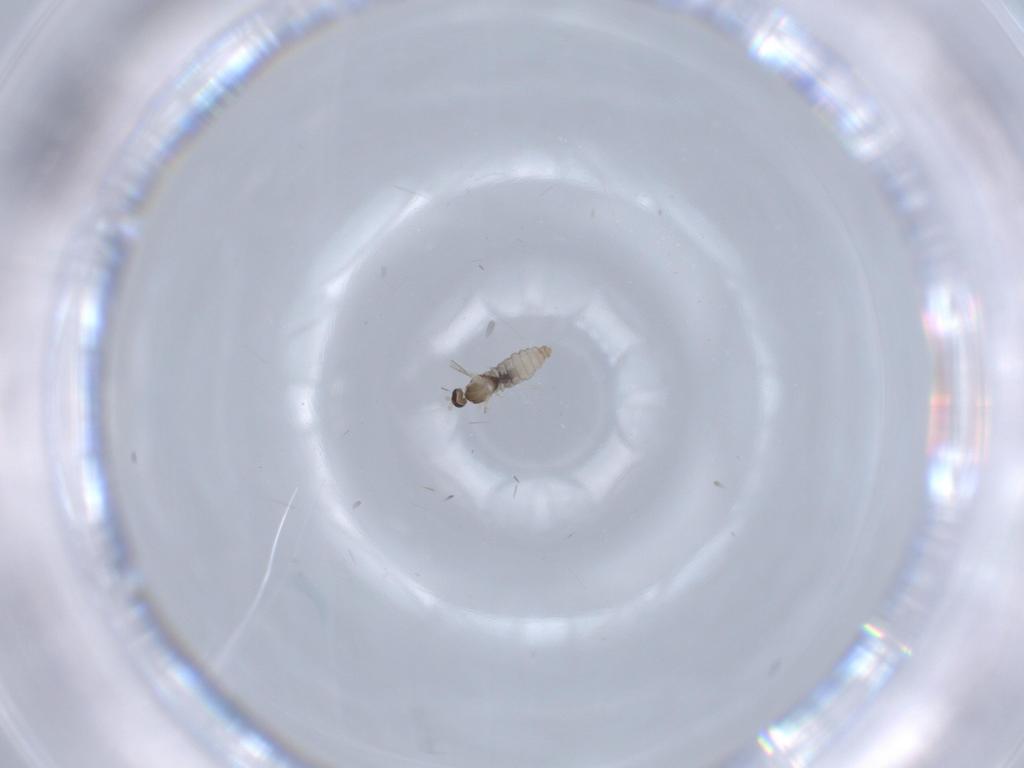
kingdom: Animalia
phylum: Arthropoda
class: Insecta
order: Diptera
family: Cecidomyiidae
